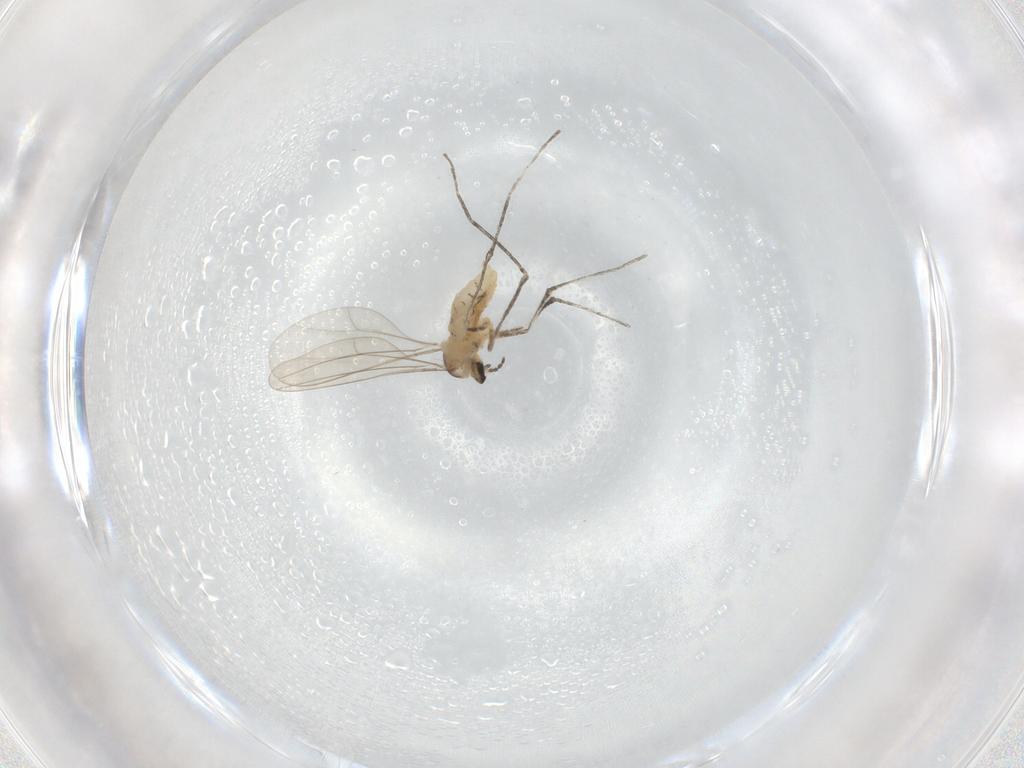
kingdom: Animalia
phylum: Arthropoda
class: Insecta
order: Diptera
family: Cecidomyiidae
